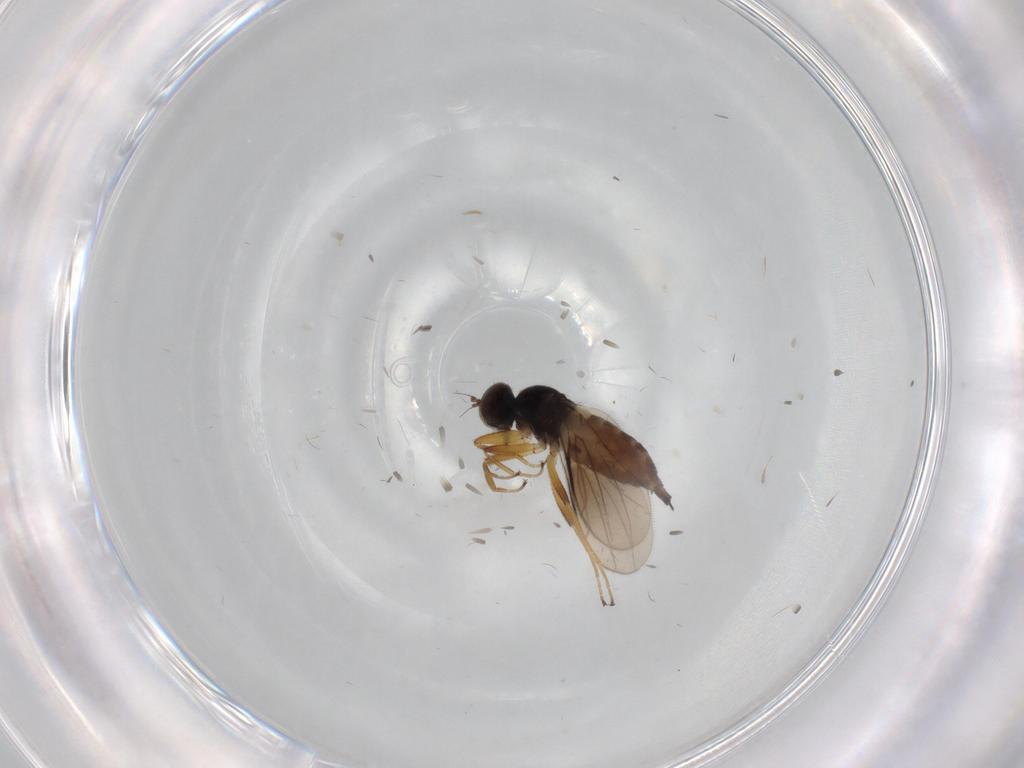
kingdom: Animalia
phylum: Arthropoda
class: Insecta
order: Diptera
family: Hybotidae
